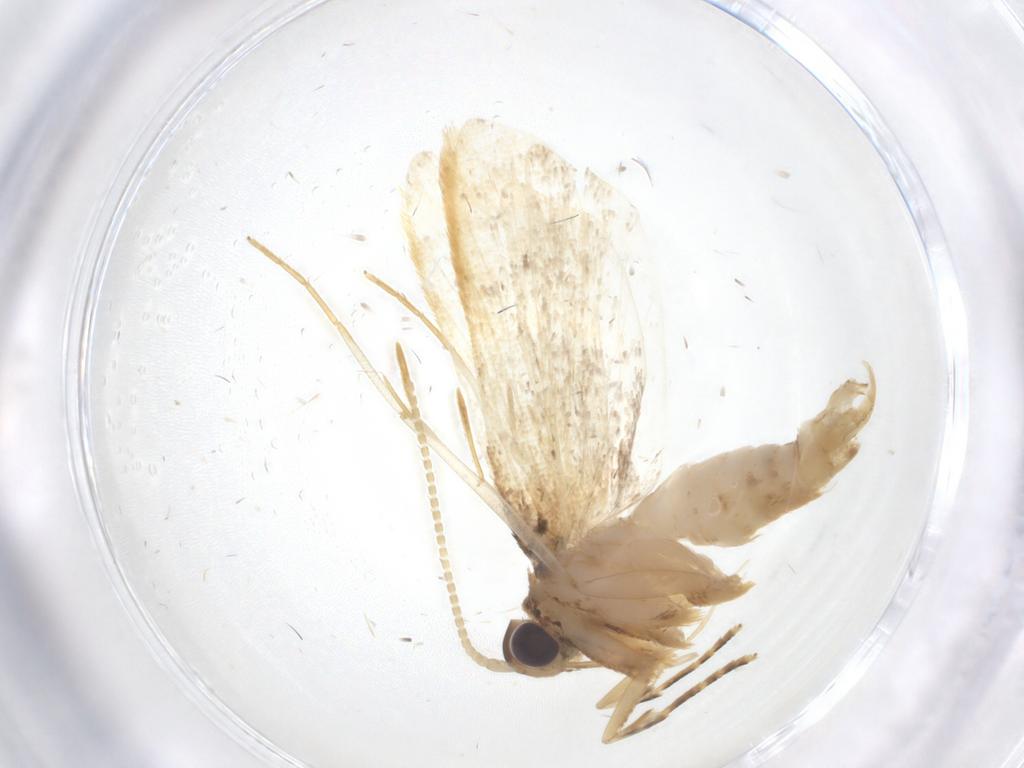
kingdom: Animalia
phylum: Arthropoda
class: Insecta
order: Lepidoptera
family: Lecithoceridae
